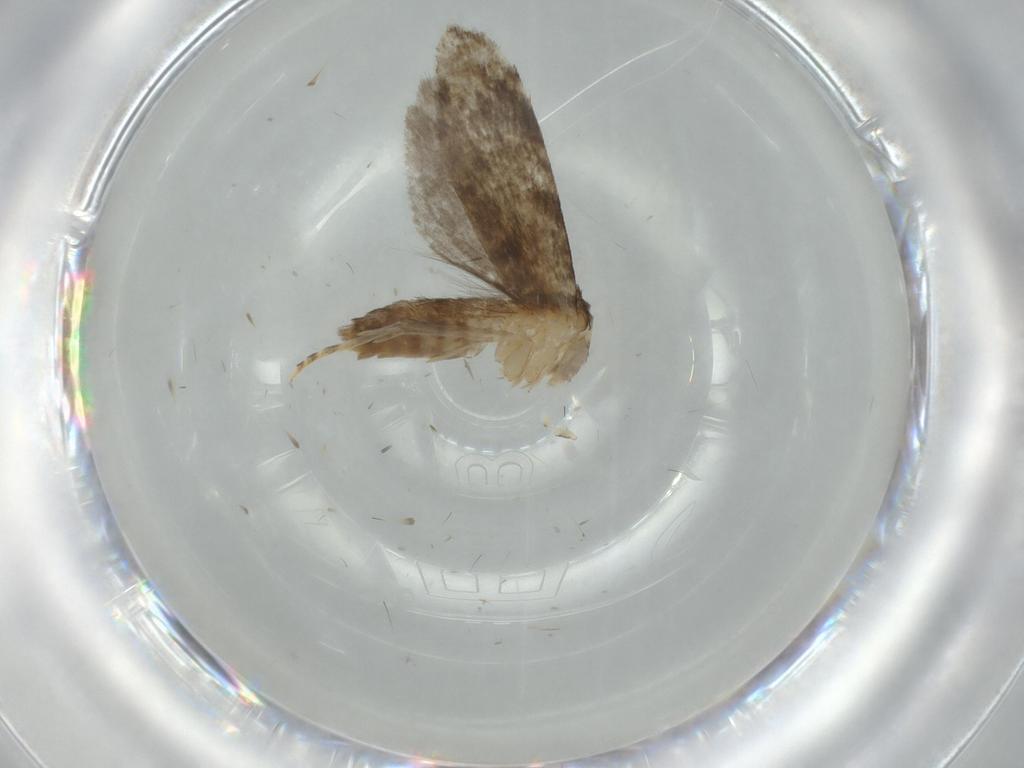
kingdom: Animalia
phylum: Arthropoda
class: Insecta
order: Lepidoptera
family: Tineidae
